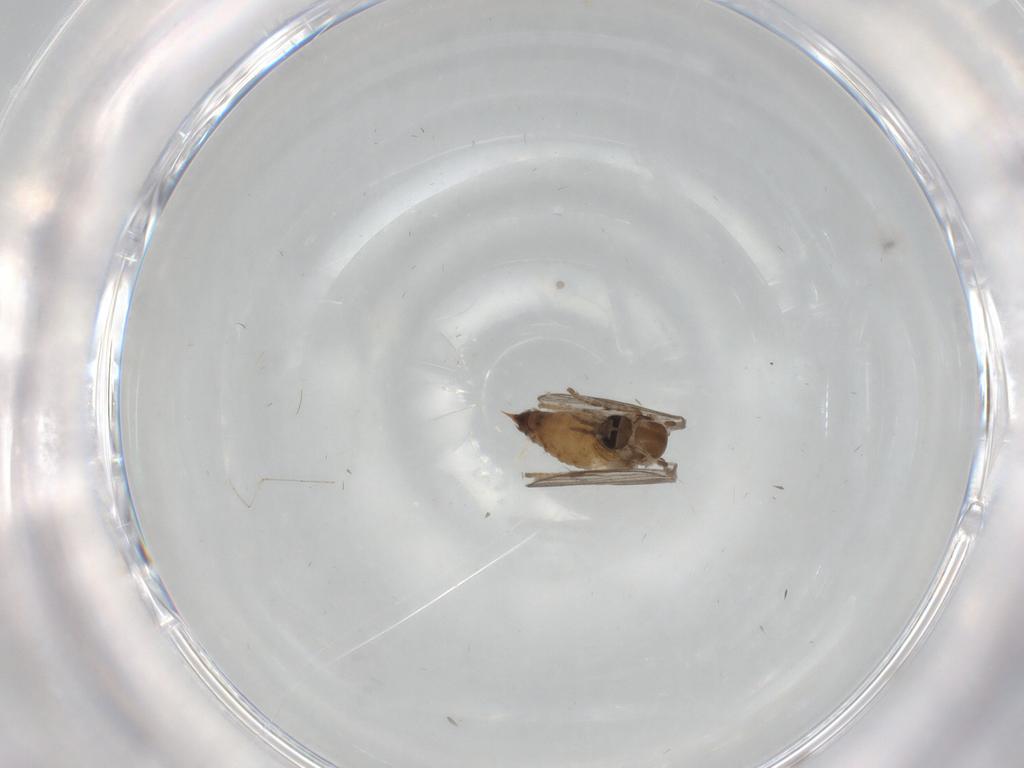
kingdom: Animalia
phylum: Arthropoda
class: Insecta
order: Diptera
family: Psychodidae
